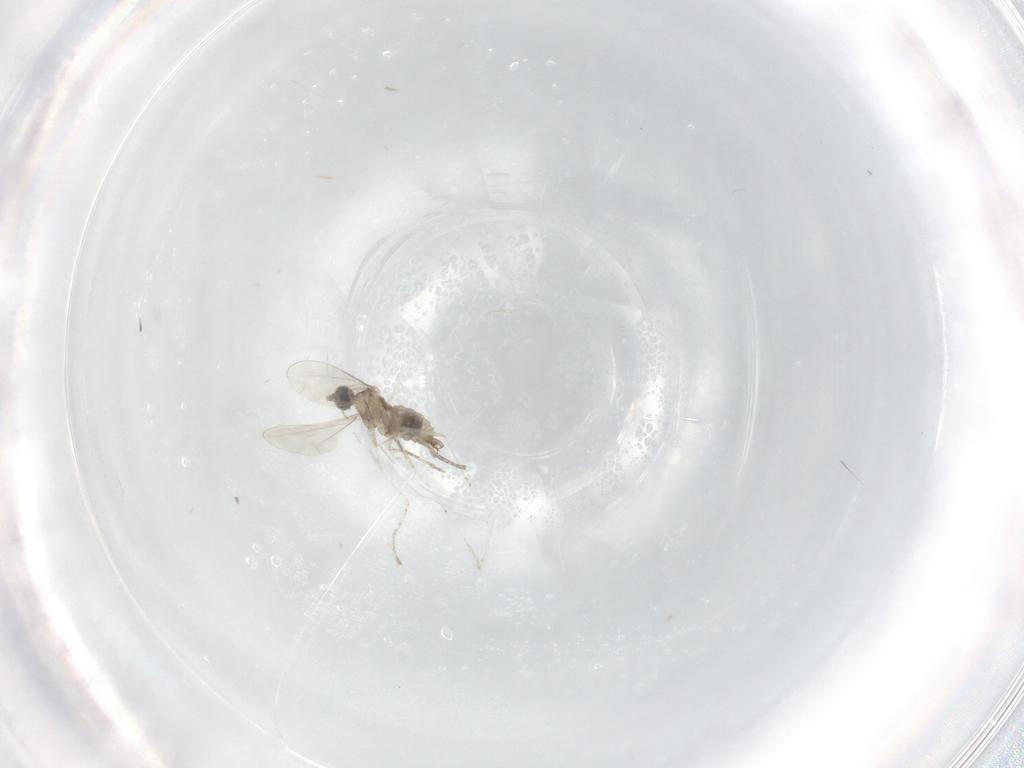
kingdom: Animalia
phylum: Arthropoda
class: Insecta
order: Diptera
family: Cecidomyiidae
